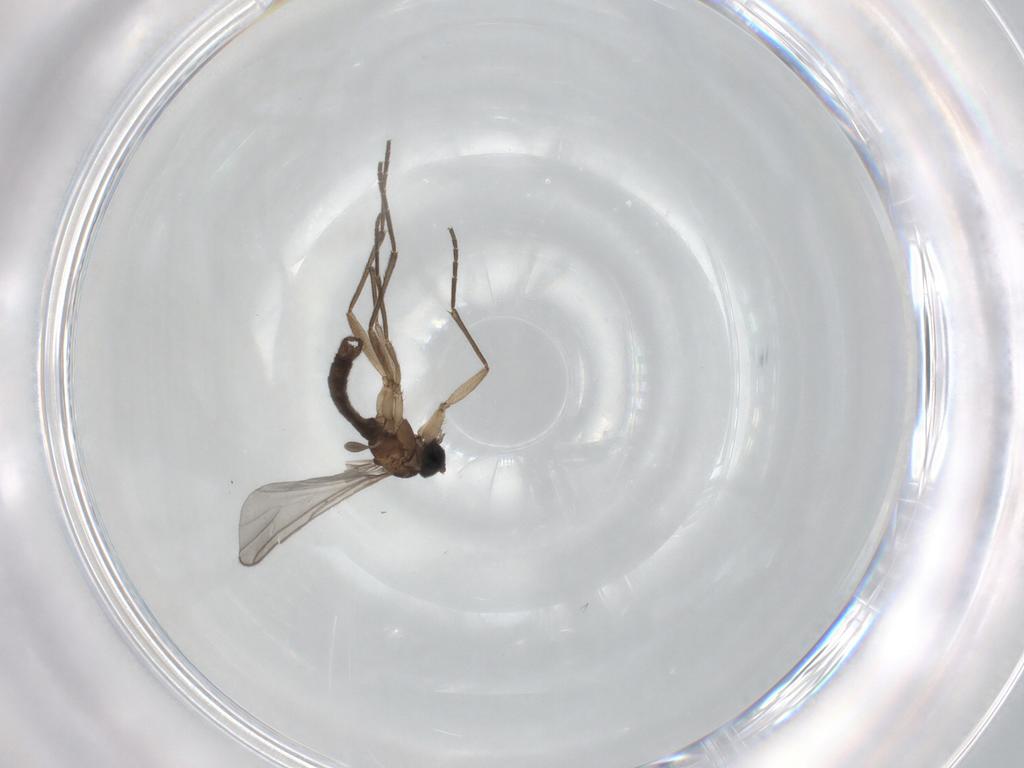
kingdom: Animalia
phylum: Arthropoda
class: Insecta
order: Diptera
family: Sciaridae
